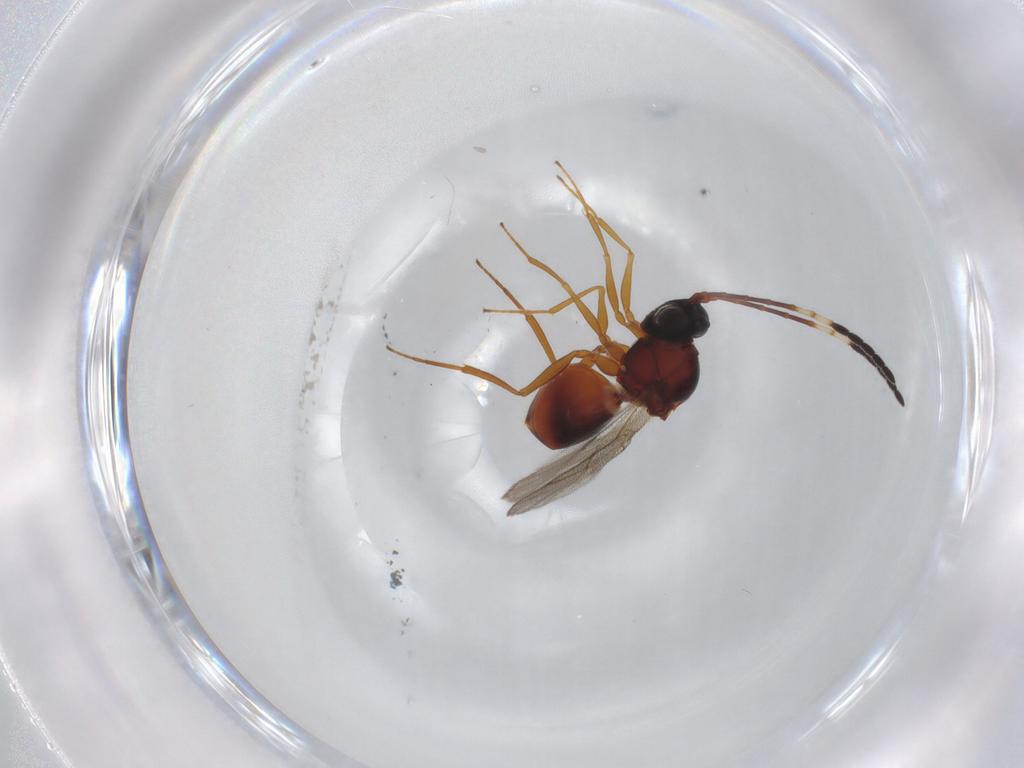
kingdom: Animalia
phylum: Arthropoda
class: Insecta
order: Hymenoptera
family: Figitidae
